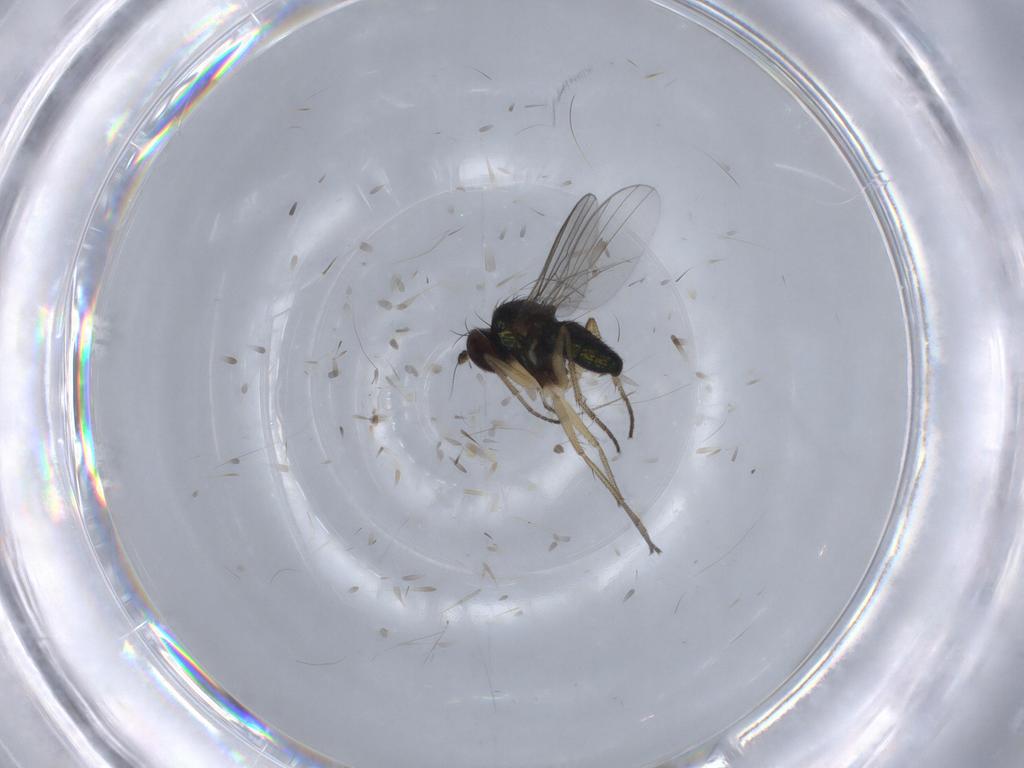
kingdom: Animalia
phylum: Arthropoda
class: Insecta
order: Diptera
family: Chironomidae
